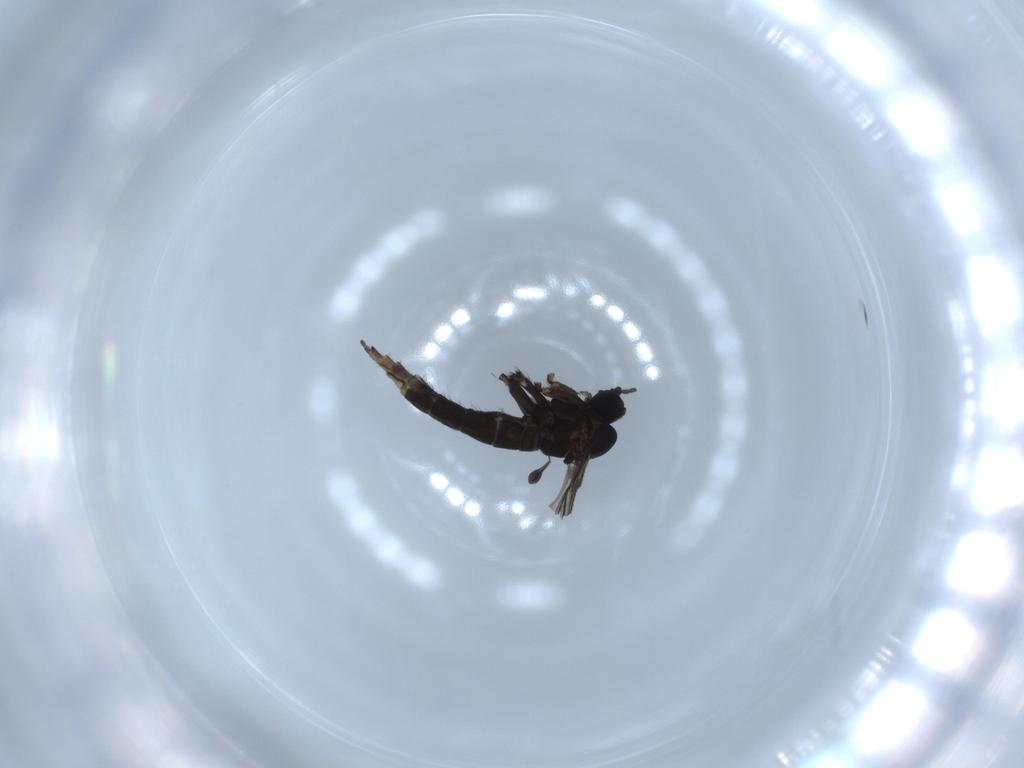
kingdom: Animalia
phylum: Arthropoda
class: Insecta
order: Diptera
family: Sciaridae
